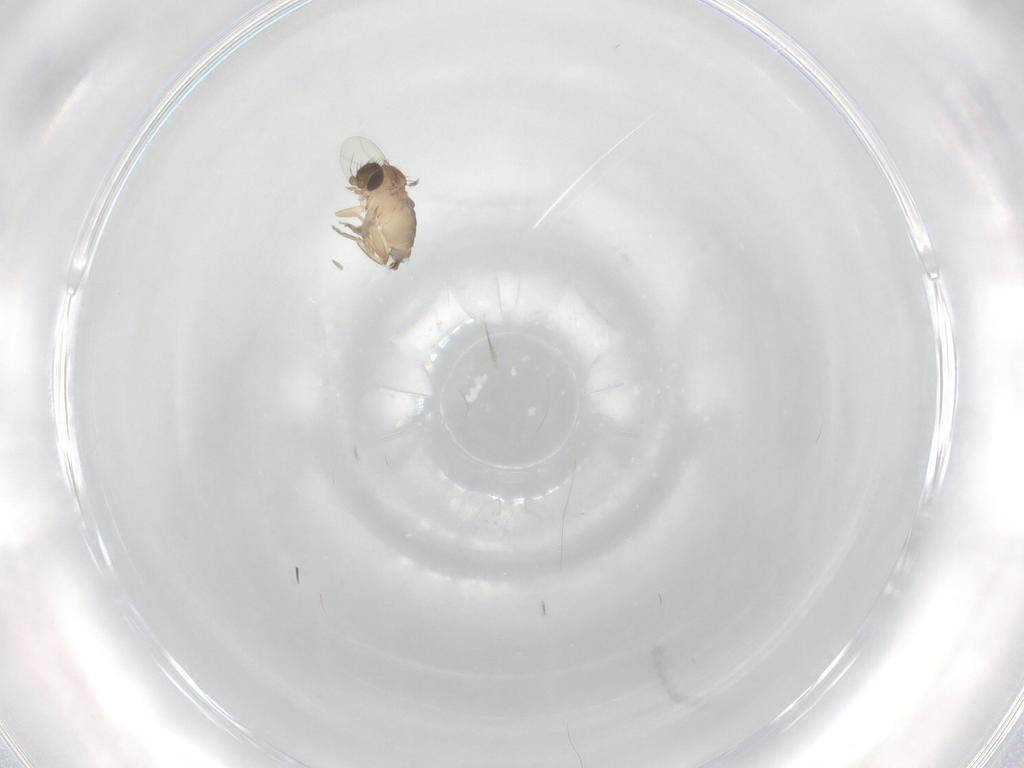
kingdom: Animalia
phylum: Arthropoda
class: Insecta
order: Diptera
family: Phoridae
